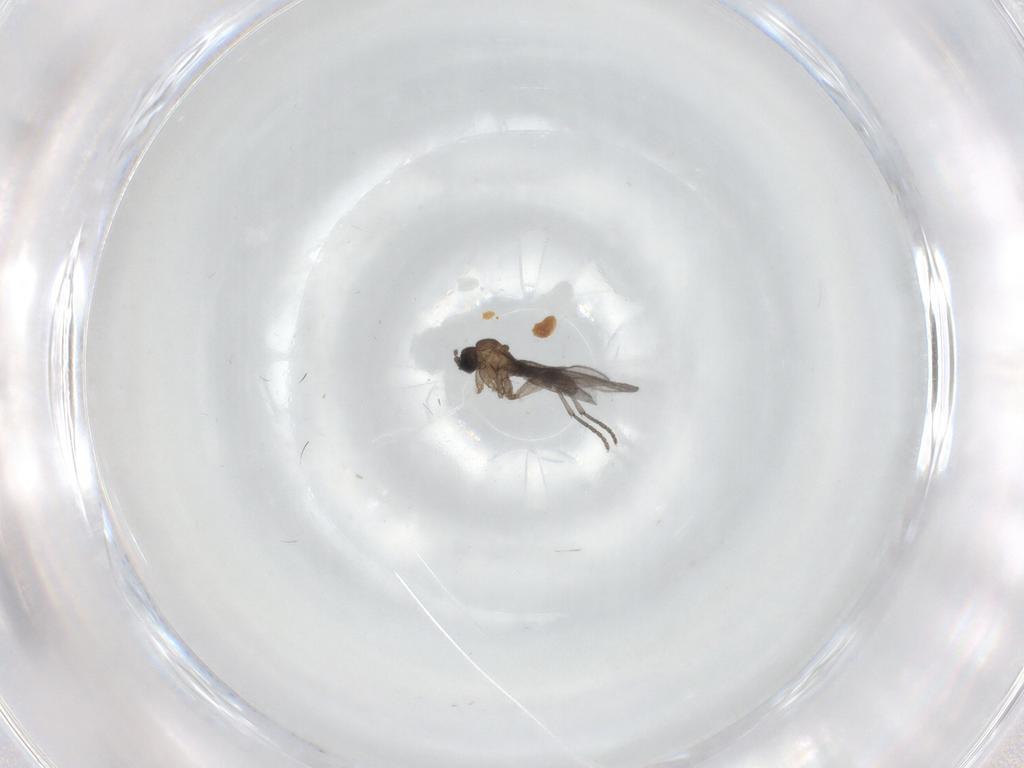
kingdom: Animalia
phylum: Arthropoda
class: Insecta
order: Diptera
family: Sciaridae
